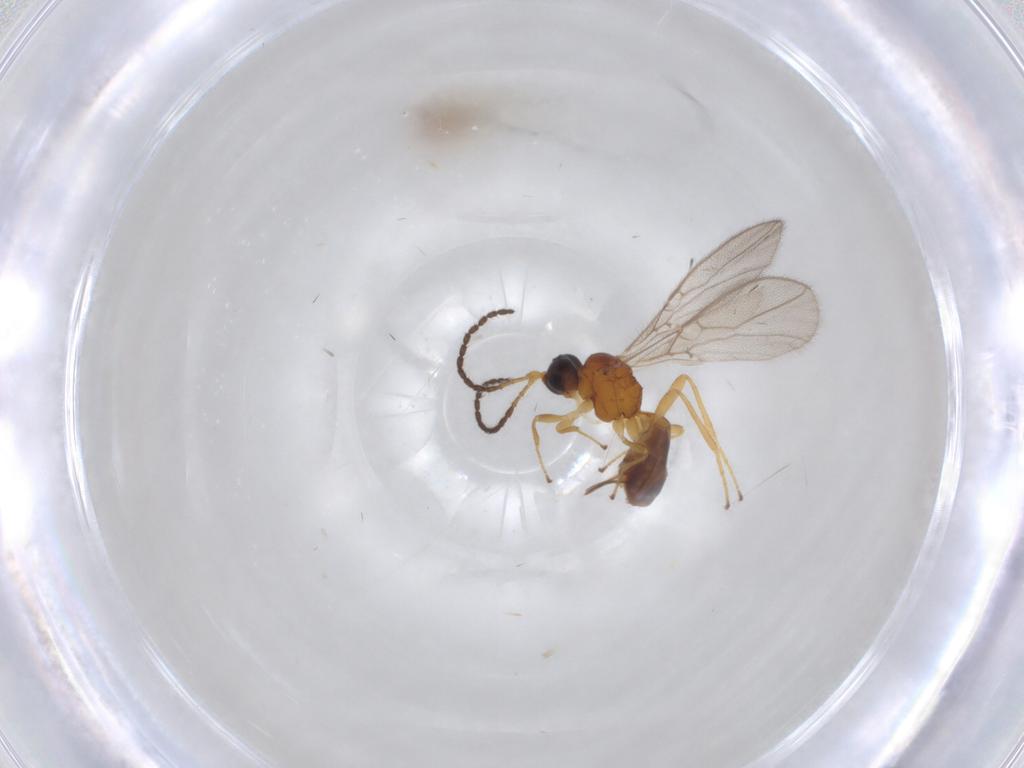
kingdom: Animalia
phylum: Arthropoda
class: Insecta
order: Hymenoptera
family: Braconidae
